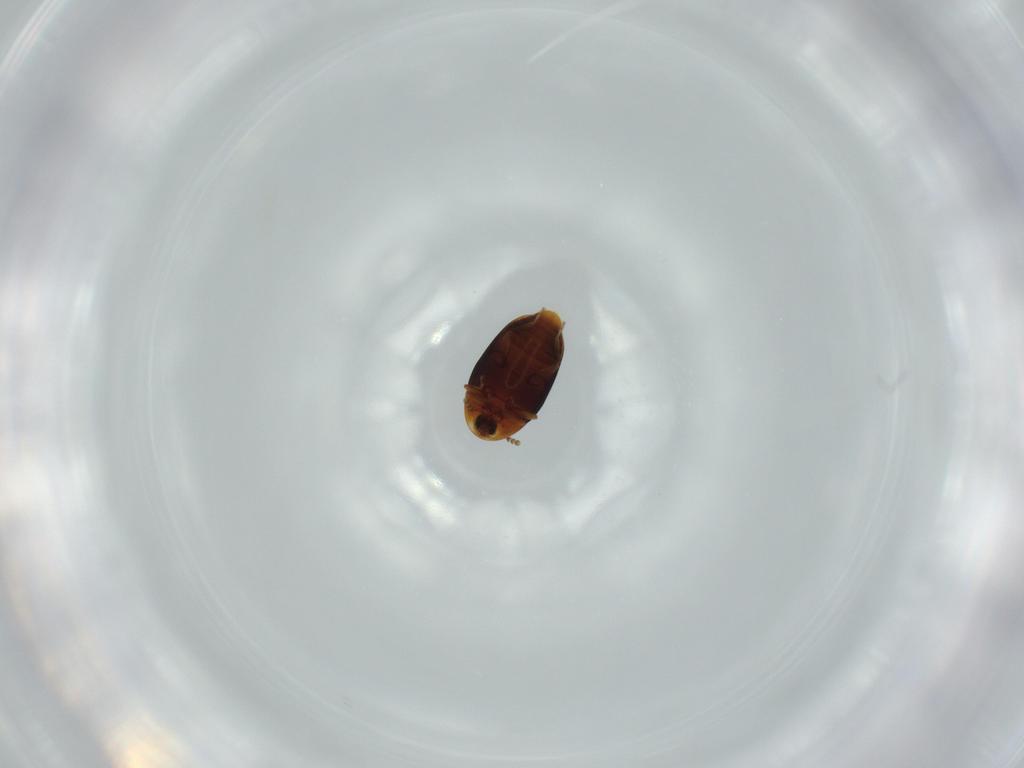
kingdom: Animalia
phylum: Arthropoda
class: Insecta
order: Coleoptera
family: Corylophidae
